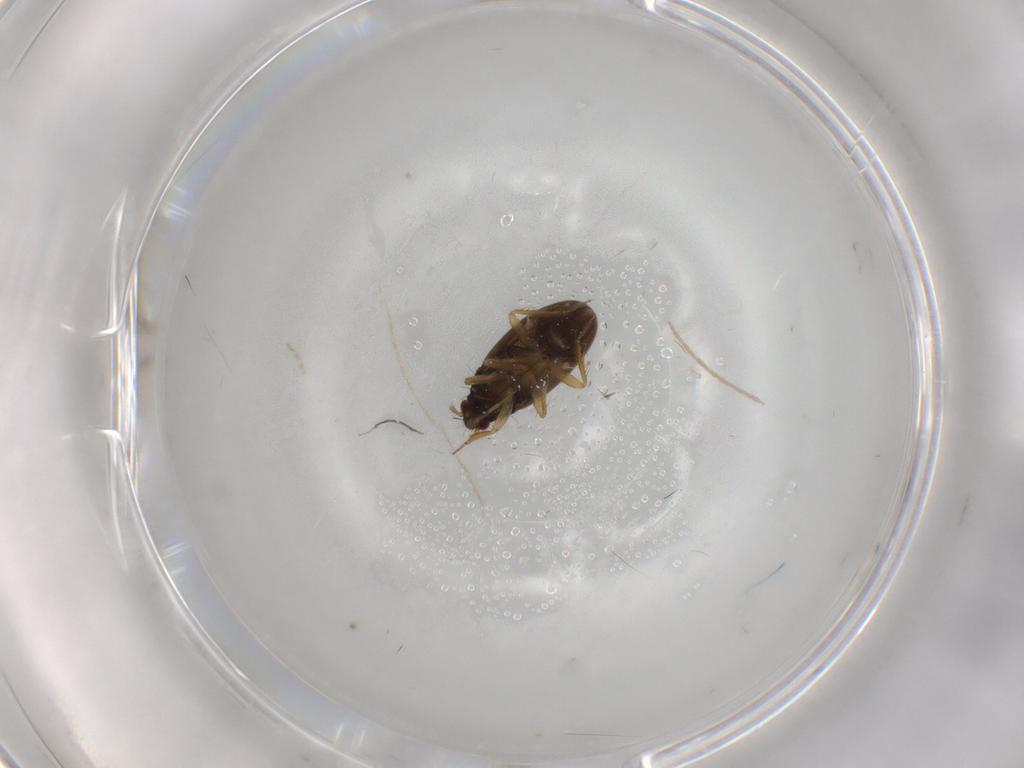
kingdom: Animalia
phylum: Arthropoda
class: Insecta
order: Hemiptera
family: Ceratocombidae
